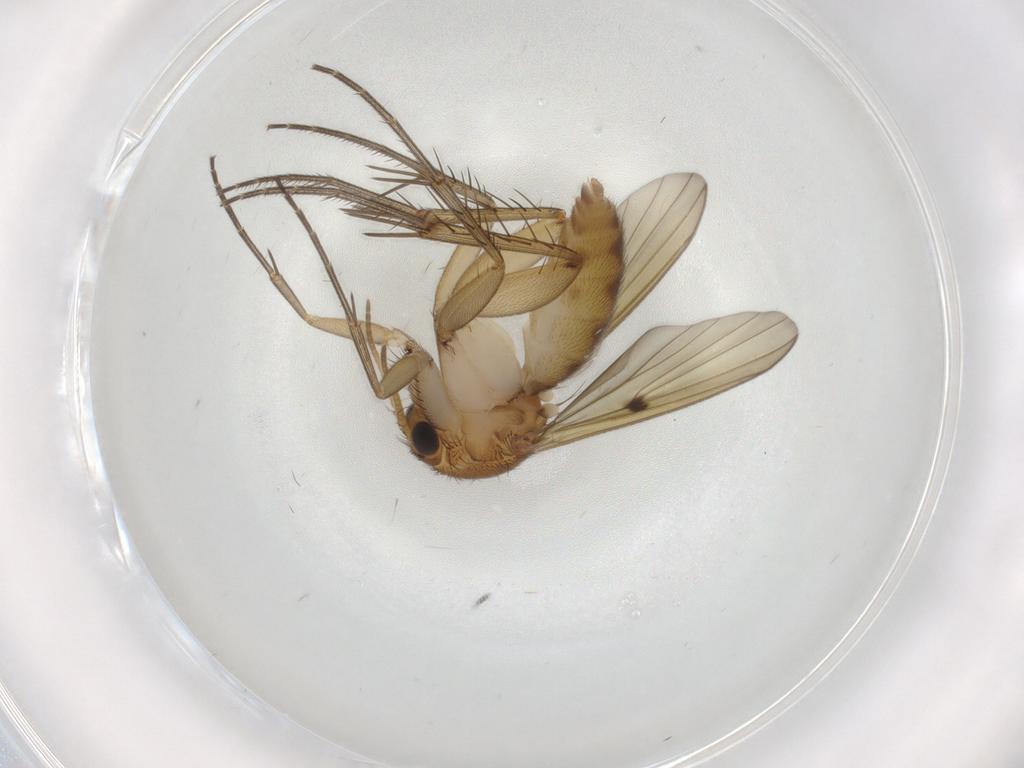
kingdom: Animalia
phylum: Arthropoda
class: Insecta
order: Diptera
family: Mycetophilidae
